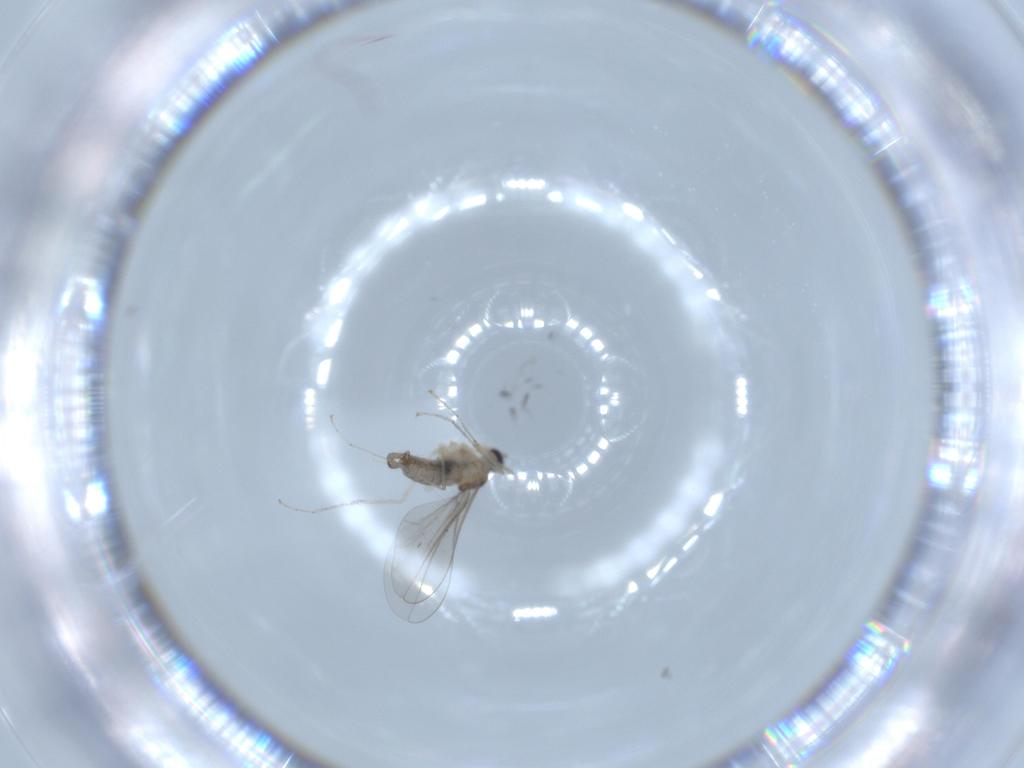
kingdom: Animalia
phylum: Arthropoda
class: Insecta
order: Diptera
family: Cecidomyiidae
